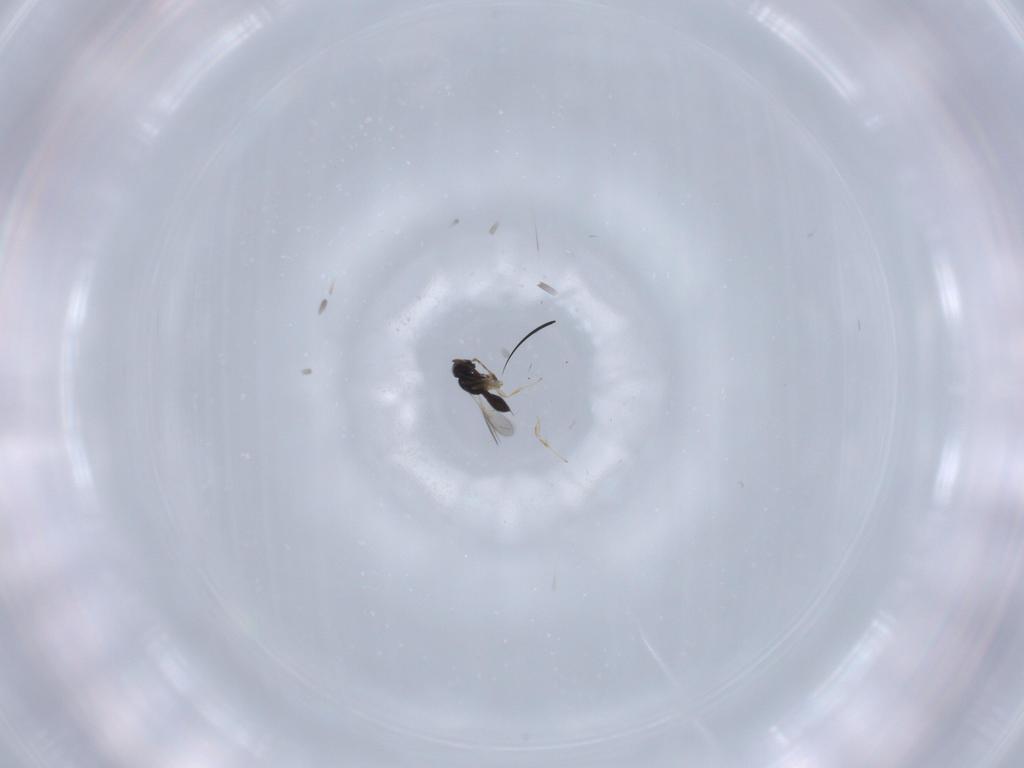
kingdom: Animalia
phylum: Arthropoda
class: Insecta
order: Hymenoptera
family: Scelionidae
